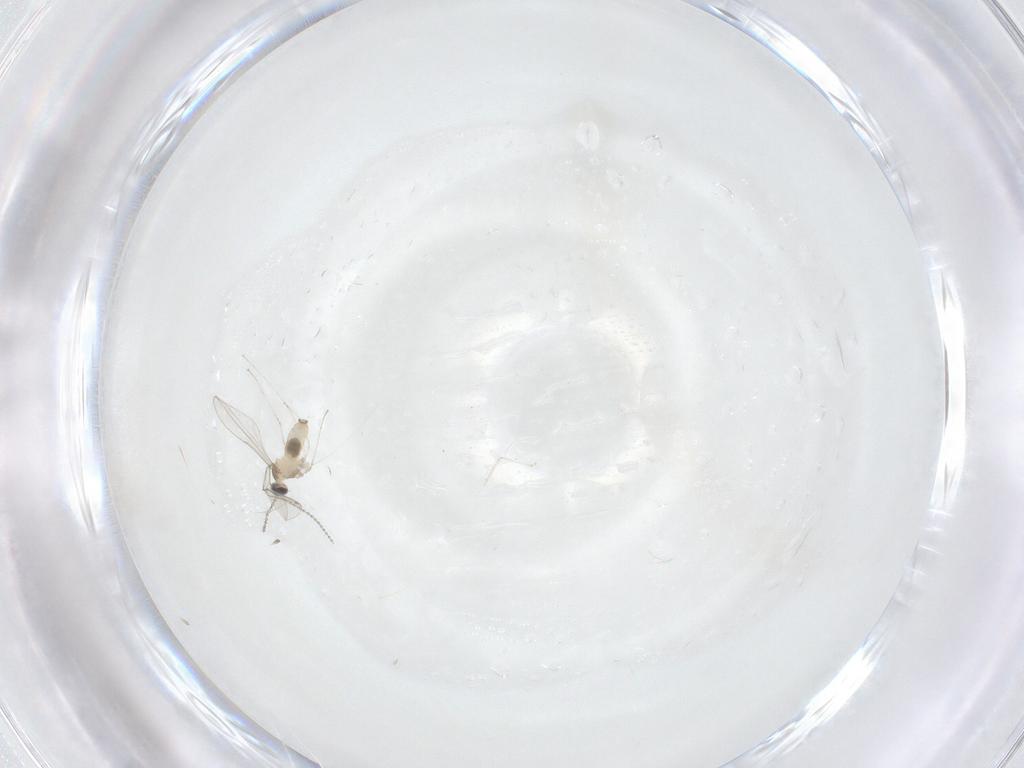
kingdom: Animalia
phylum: Arthropoda
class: Insecta
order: Diptera
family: Cecidomyiidae
